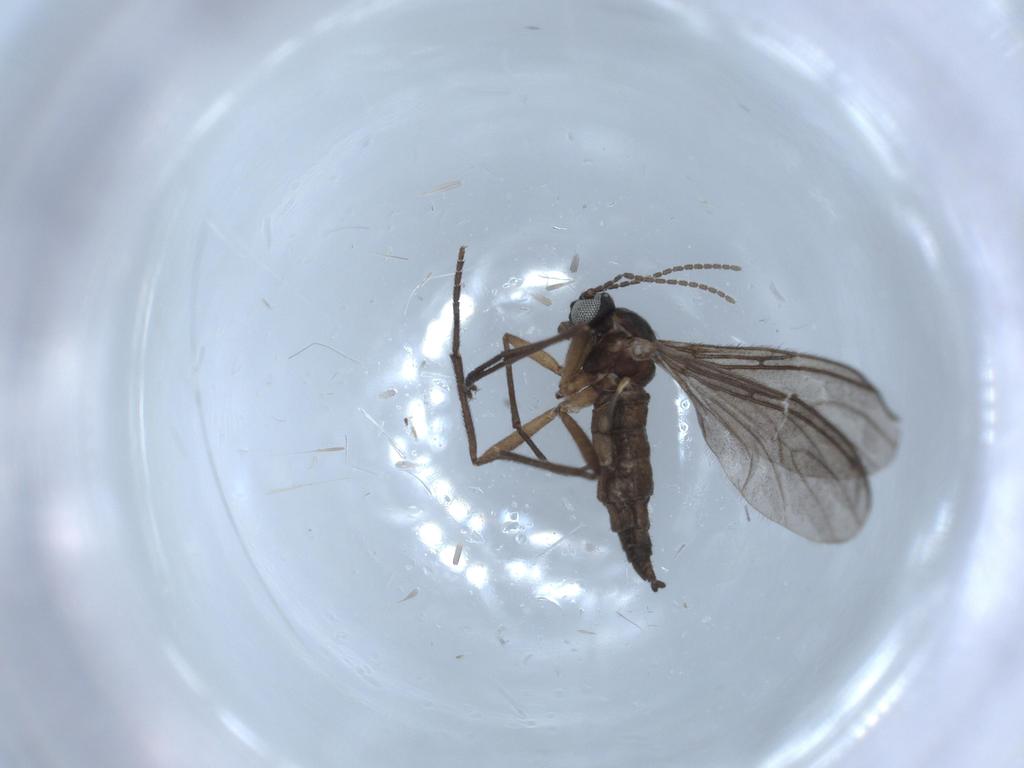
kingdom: Animalia
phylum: Arthropoda
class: Insecta
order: Diptera
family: Sciaridae
